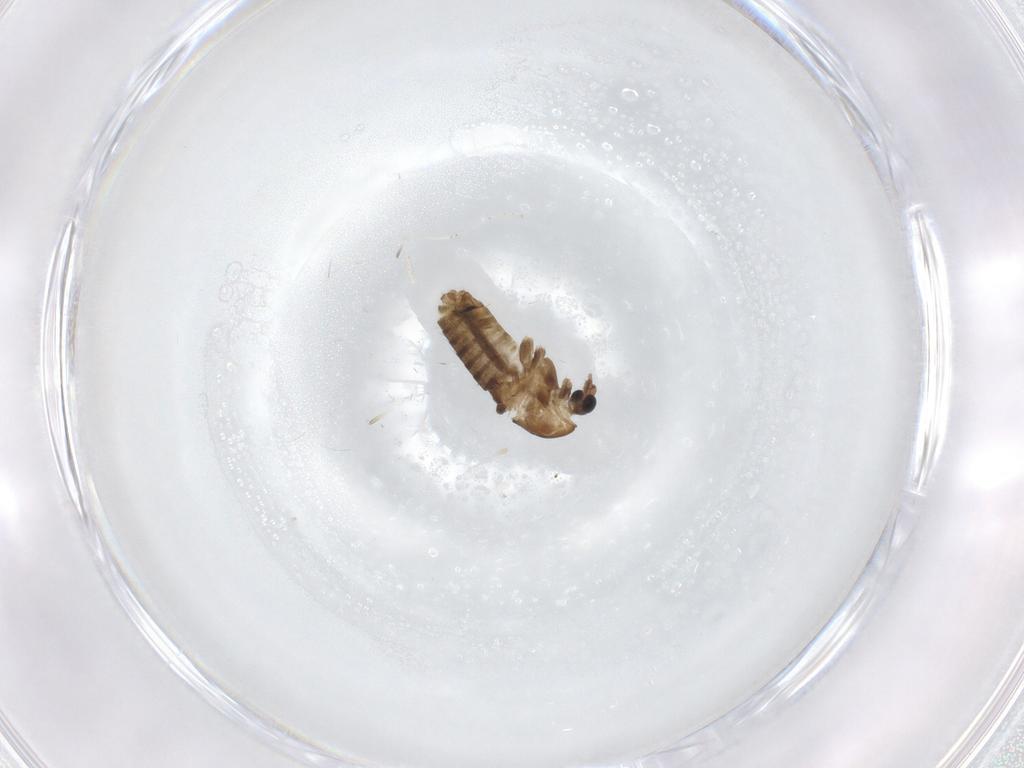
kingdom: Animalia
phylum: Arthropoda
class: Insecta
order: Diptera
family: Chironomidae
